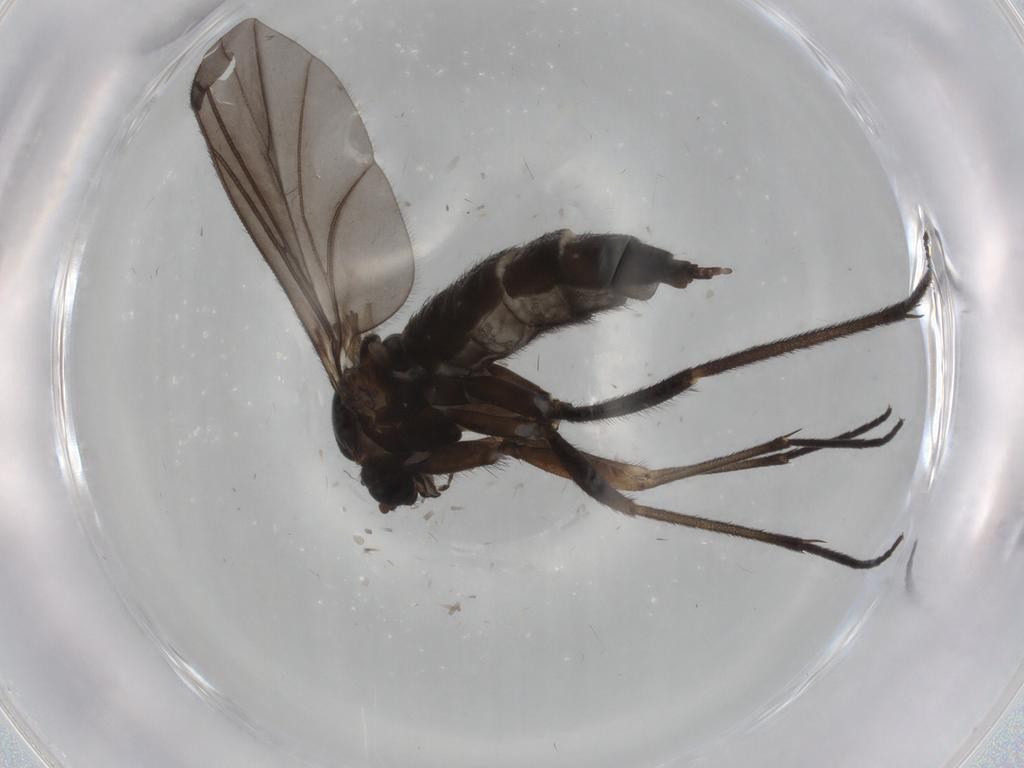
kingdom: Animalia
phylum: Arthropoda
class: Insecta
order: Diptera
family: Sciaridae
